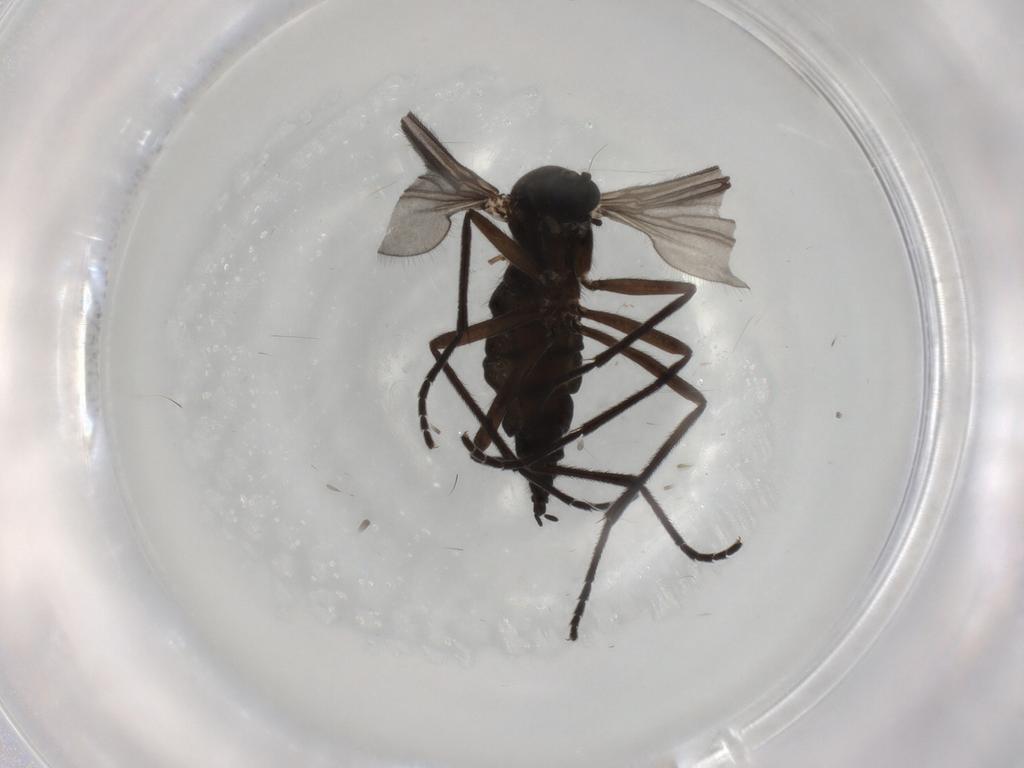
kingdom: Animalia
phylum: Arthropoda
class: Insecta
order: Diptera
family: Sciaridae
